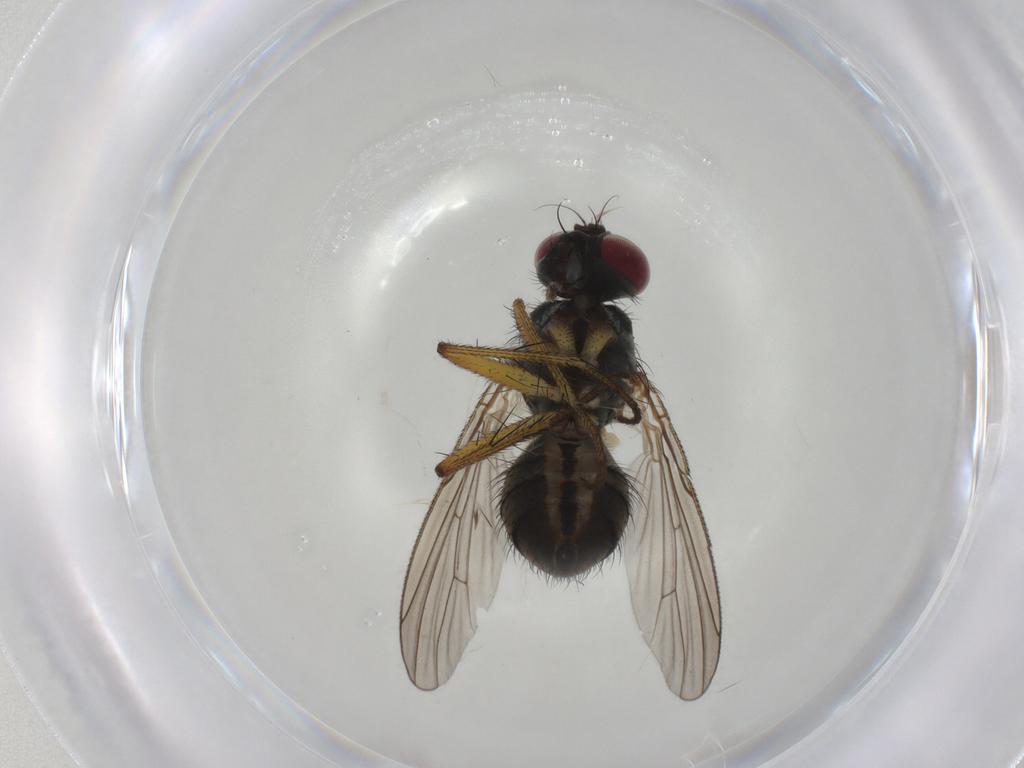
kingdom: Animalia
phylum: Arthropoda
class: Insecta
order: Diptera
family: Muscidae
